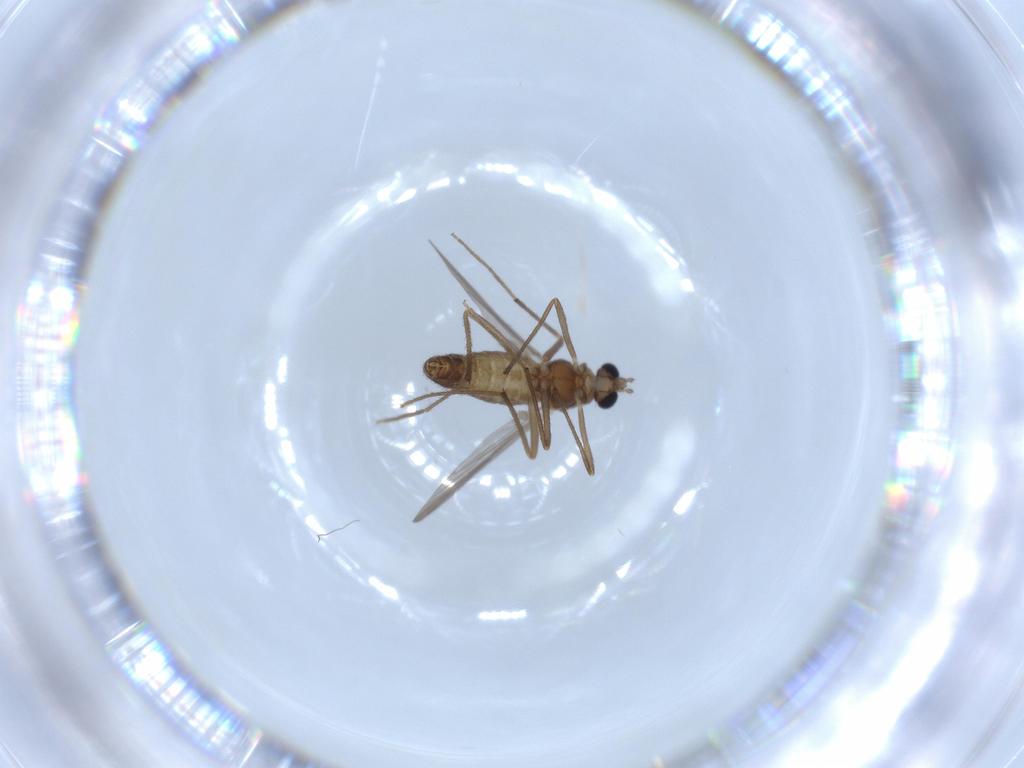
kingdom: Animalia
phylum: Arthropoda
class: Insecta
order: Diptera
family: Chironomidae
